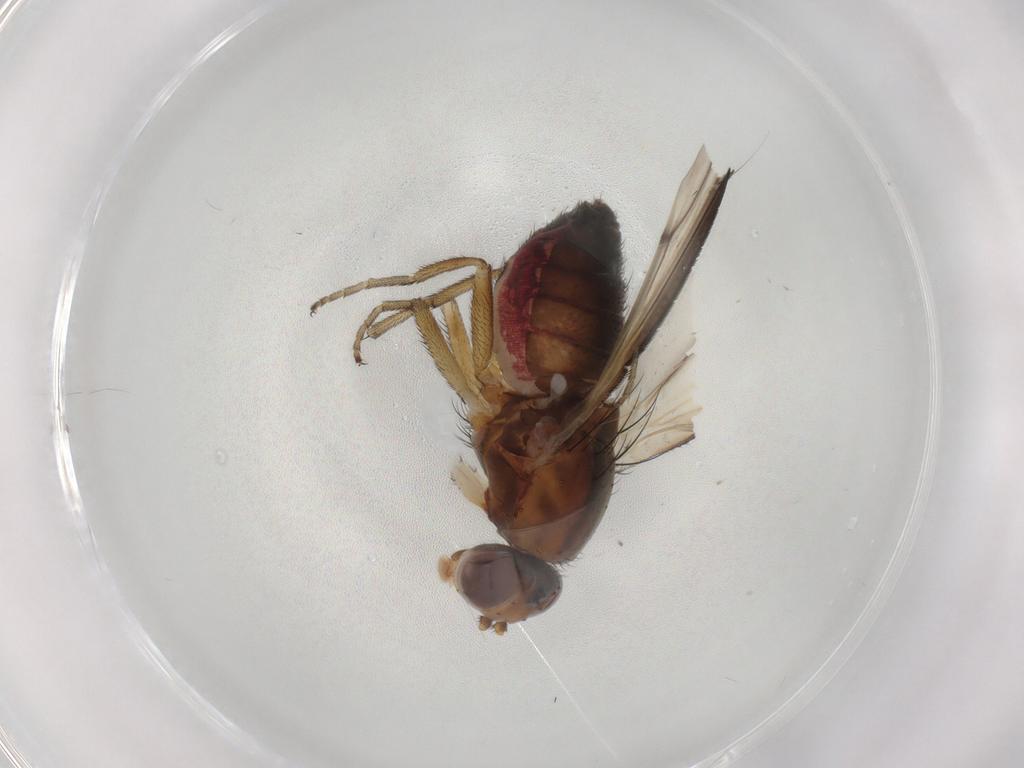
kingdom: Animalia
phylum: Arthropoda
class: Insecta
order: Diptera
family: Heleomyzidae
